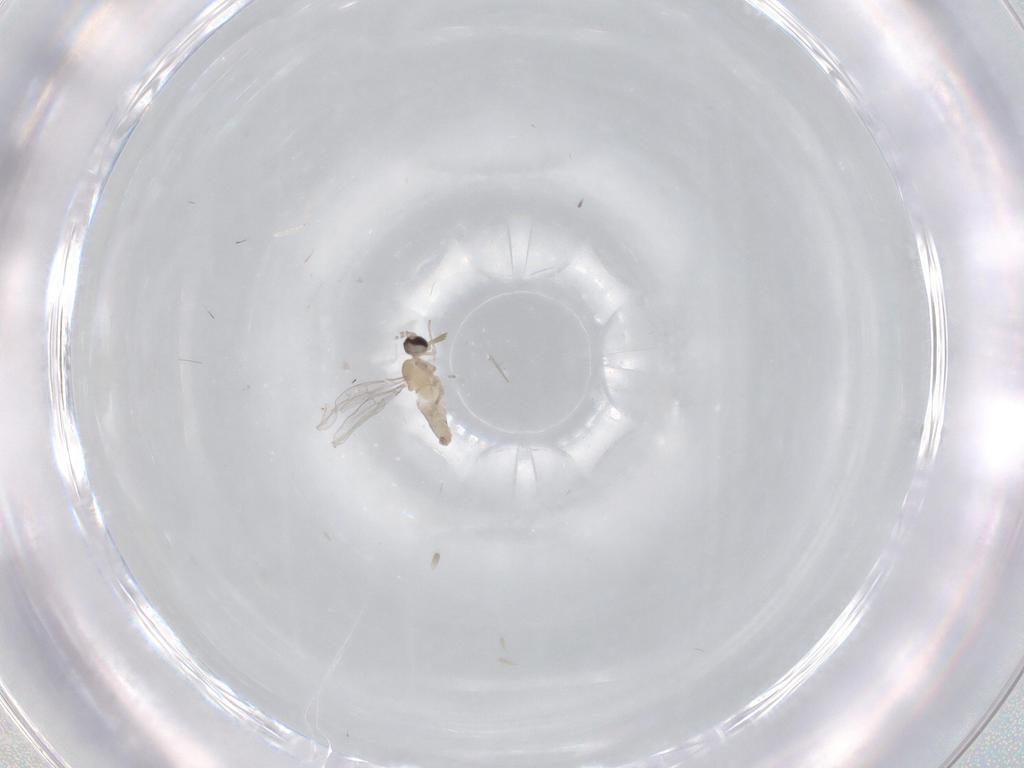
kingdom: Animalia
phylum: Arthropoda
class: Insecta
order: Diptera
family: Cecidomyiidae
